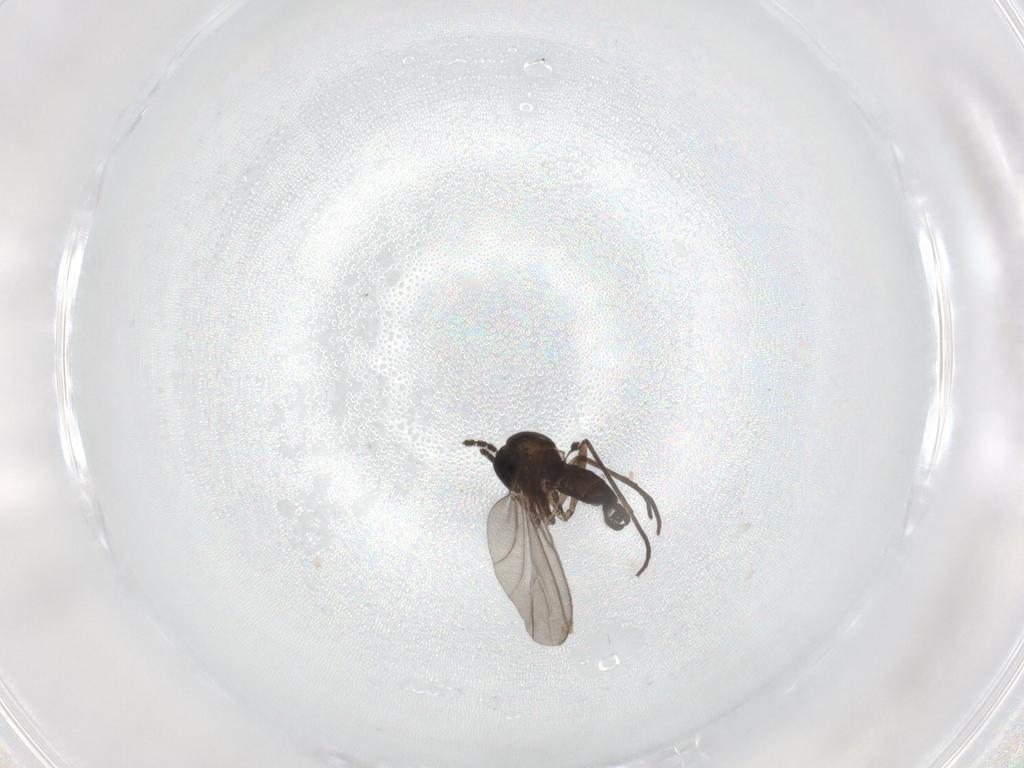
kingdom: Animalia
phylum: Arthropoda
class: Insecta
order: Diptera
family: Sciaridae
